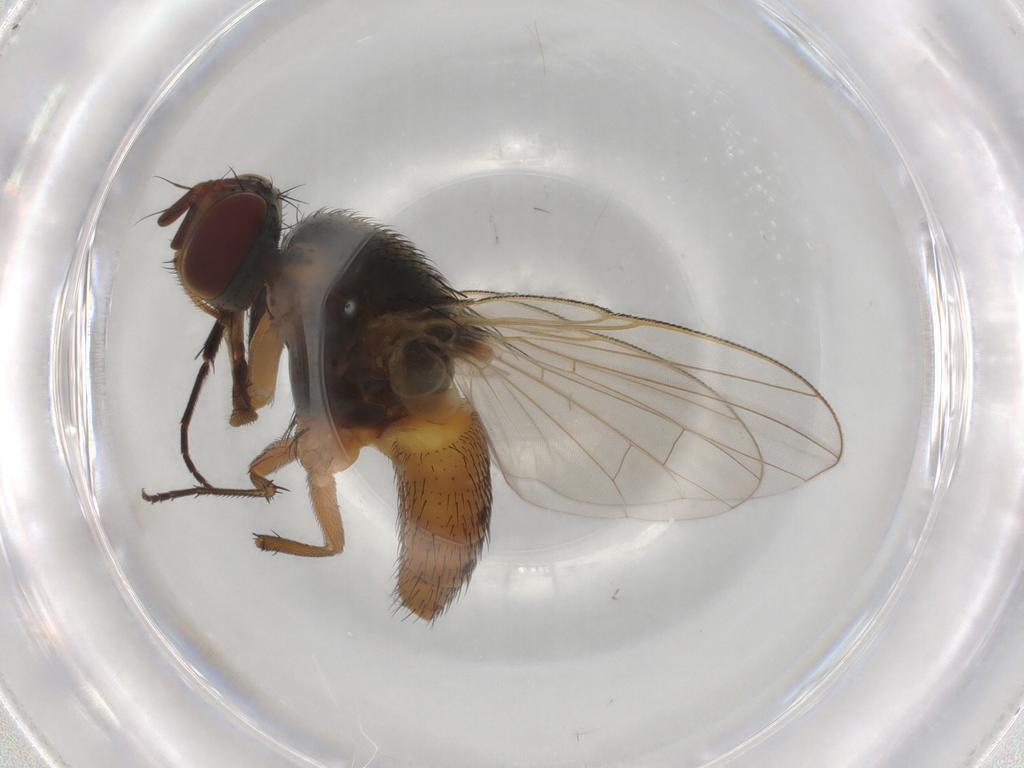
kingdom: Animalia
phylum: Arthropoda
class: Insecta
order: Diptera
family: Muscidae
